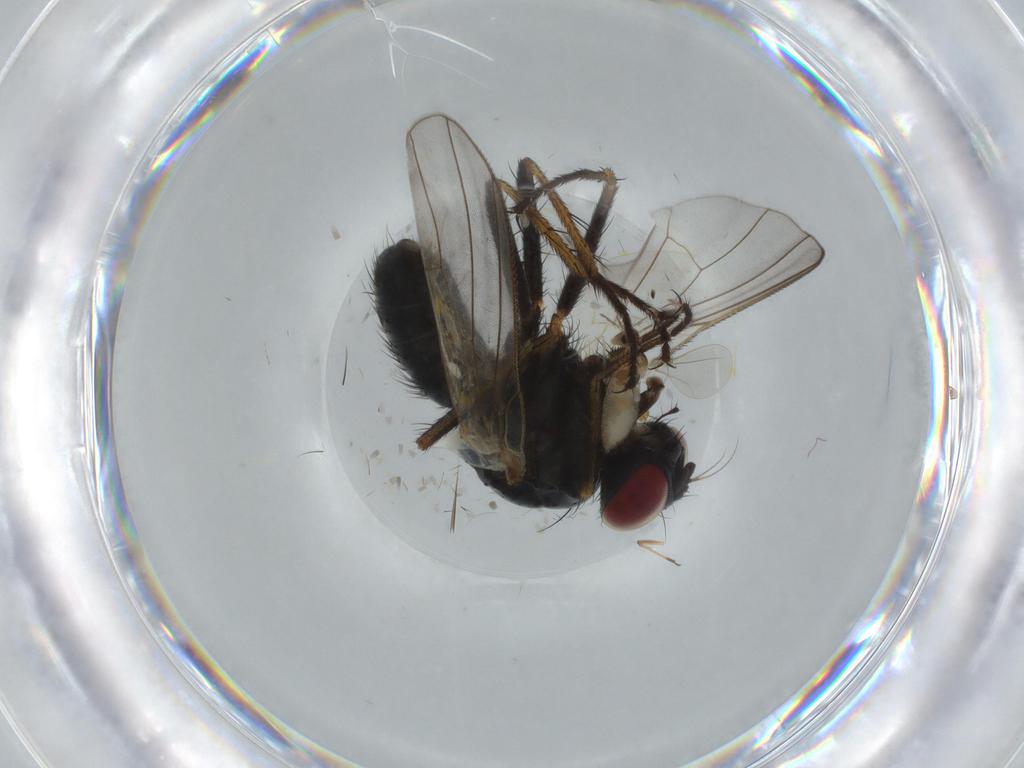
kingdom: Animalia
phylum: Arthropoda
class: Insecta
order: Diptera
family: Cecidomyiidae
